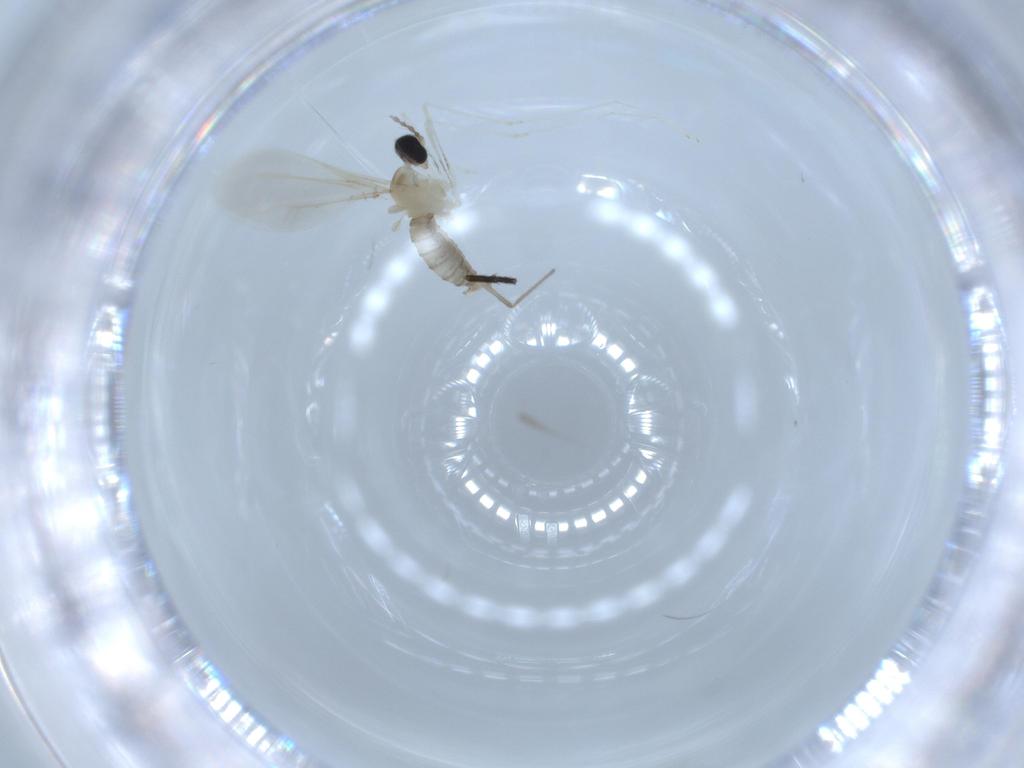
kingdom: Animalia
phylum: Arthropoda
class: Insecta
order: Diptera
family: Cecidomyiidae
